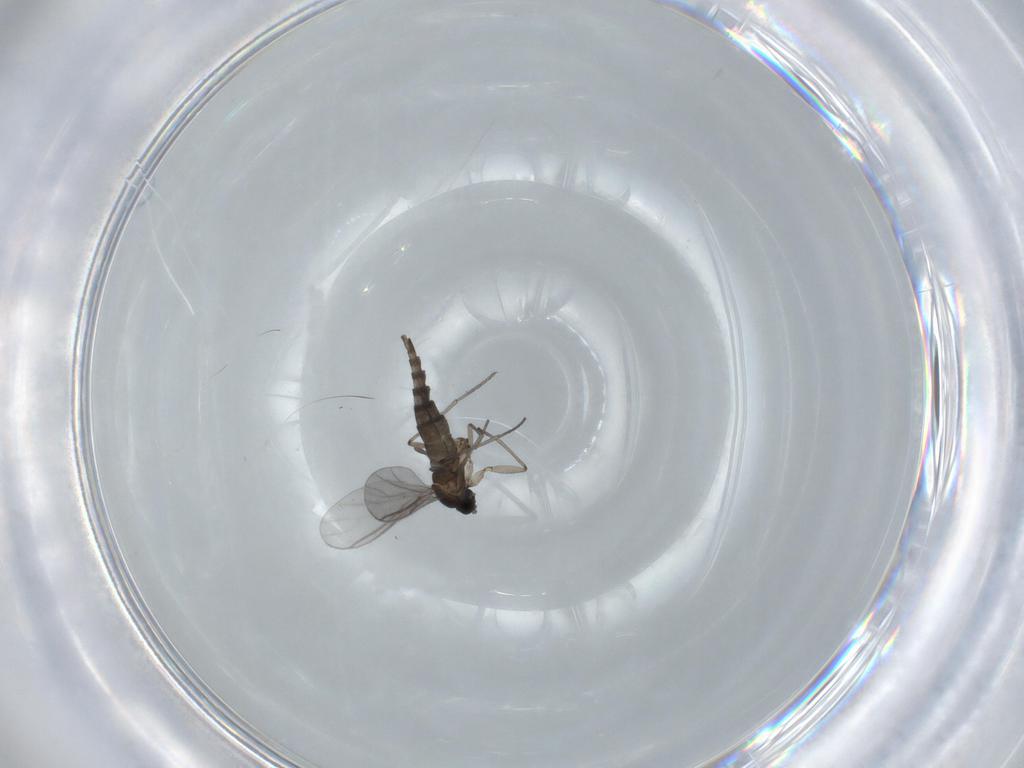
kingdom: Animalia
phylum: Arthropoda
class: Insecta
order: Diptera
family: Sciaridae
